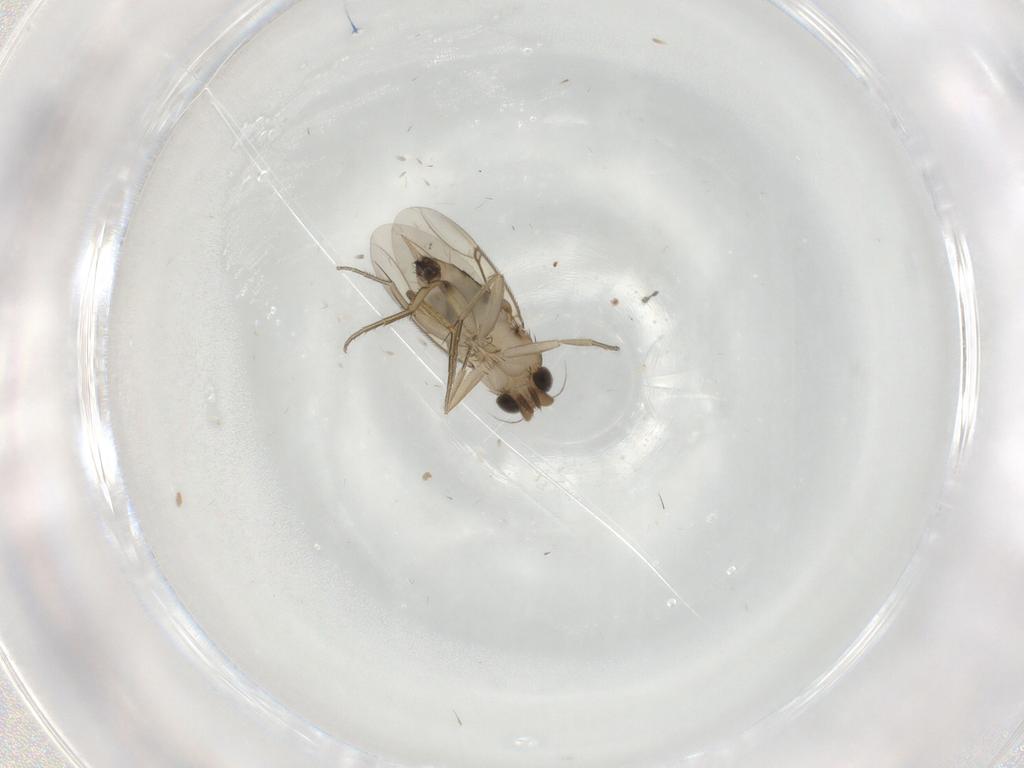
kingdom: Animalia
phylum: Arthropoda
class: Insecta
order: Diptera
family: Phoridae
